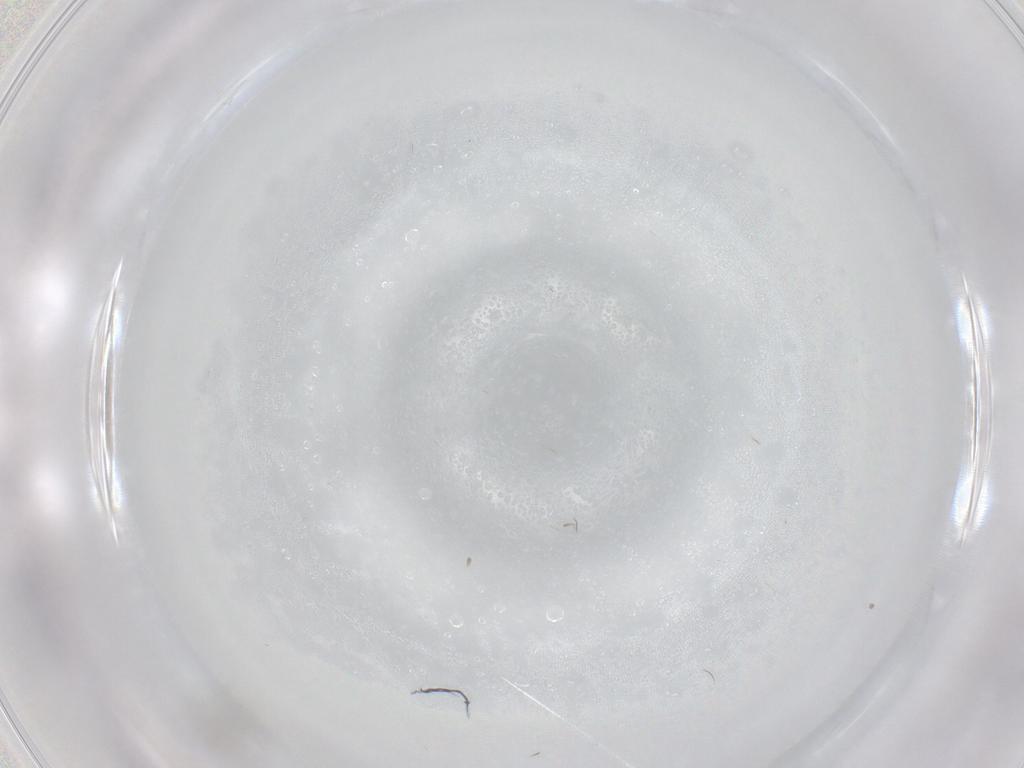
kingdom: Animalia
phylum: Arthropoda
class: Insecta
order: Diptera
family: Cecidomyiidae
